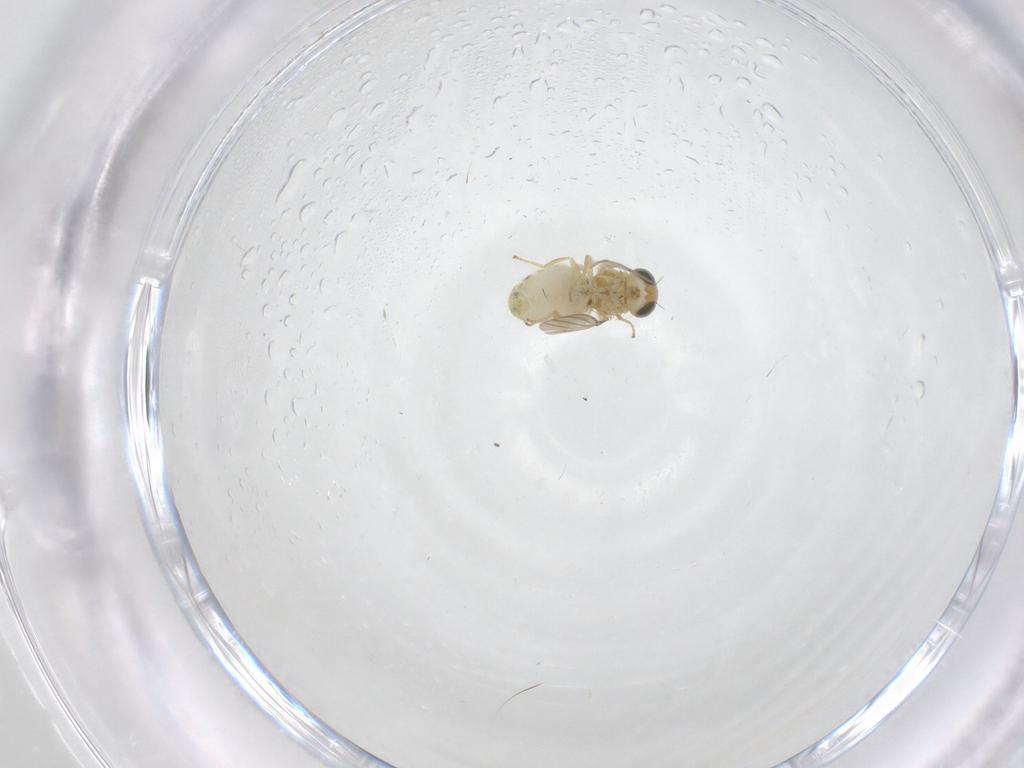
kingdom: Animalia
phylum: Arthropoda
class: Insecta
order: Diptera
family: Chyromyidae
